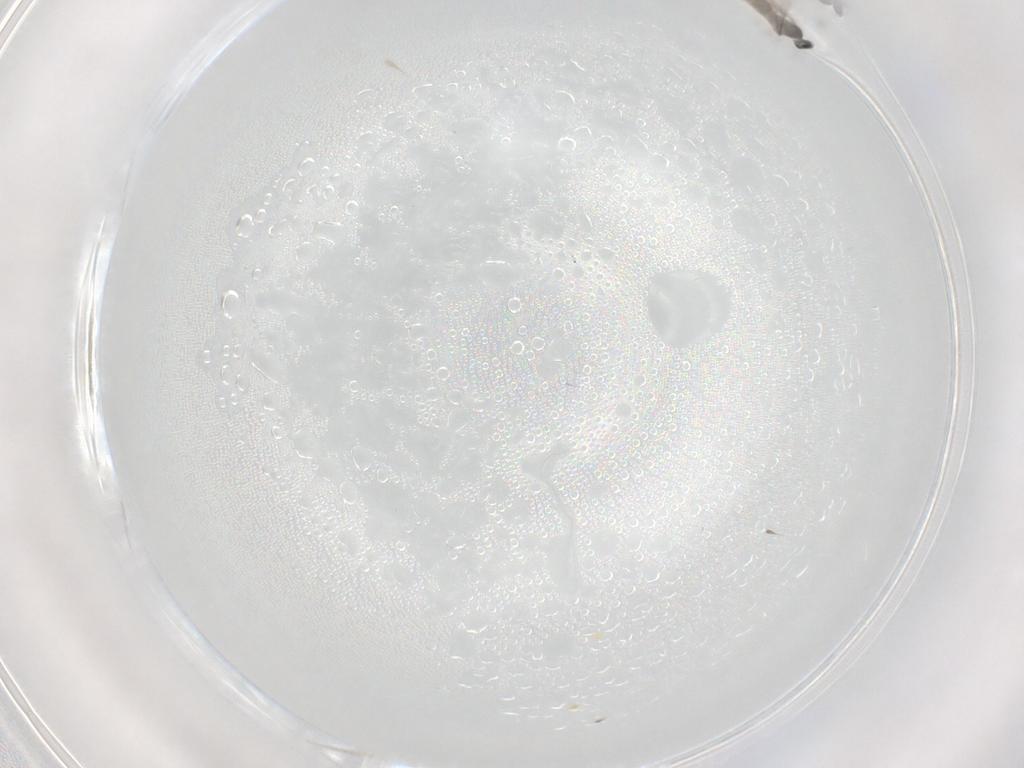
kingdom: Animalia
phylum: Arthropoda
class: Insecta
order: Diptera
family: Cecidomyiidae
